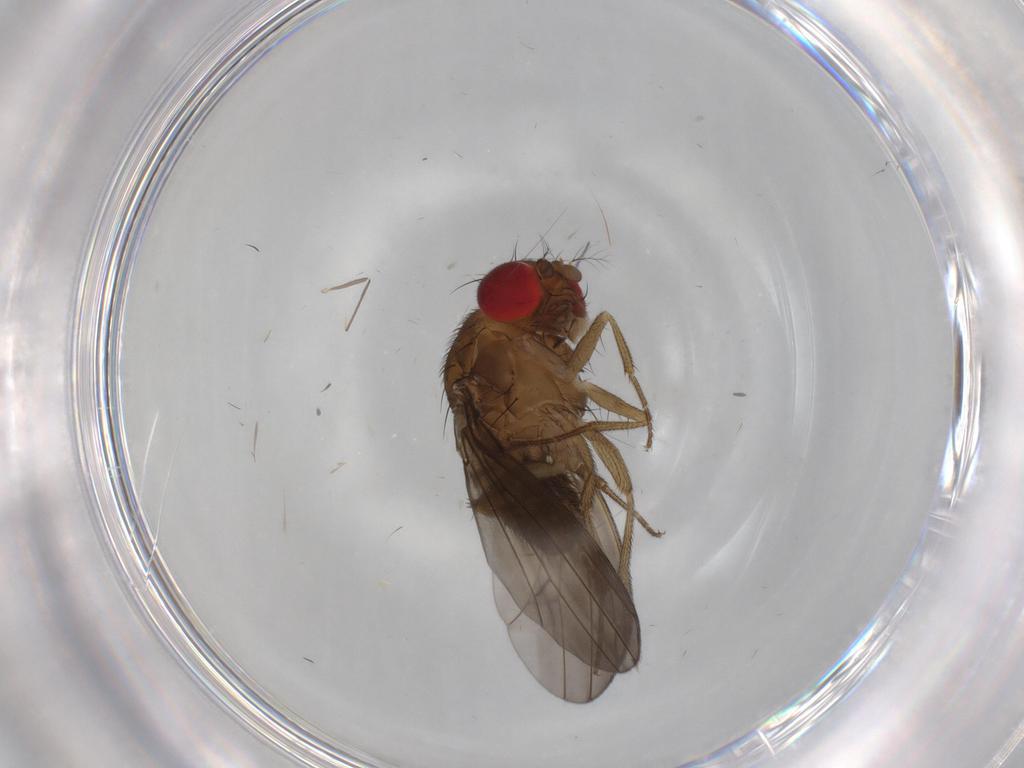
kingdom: Animalia
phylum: Arthropoda
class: Insecta
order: Diptera
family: Drosophilidae
